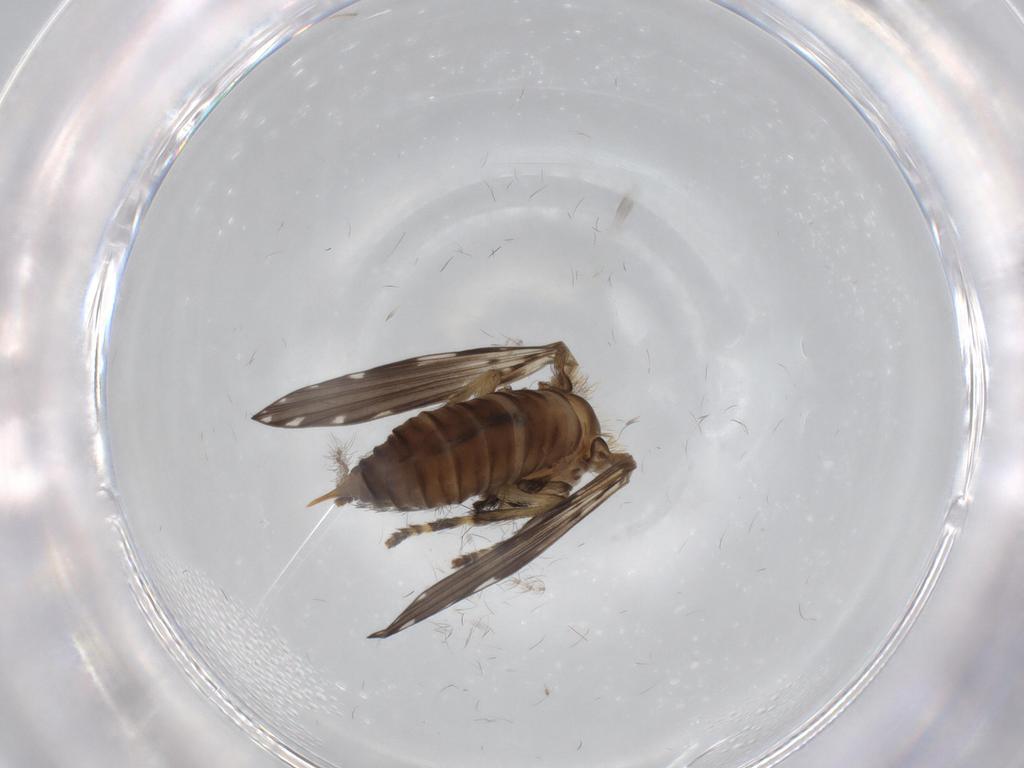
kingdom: Animalia
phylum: Arthropoda
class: Insecta
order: Diptera
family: Psychodidae
